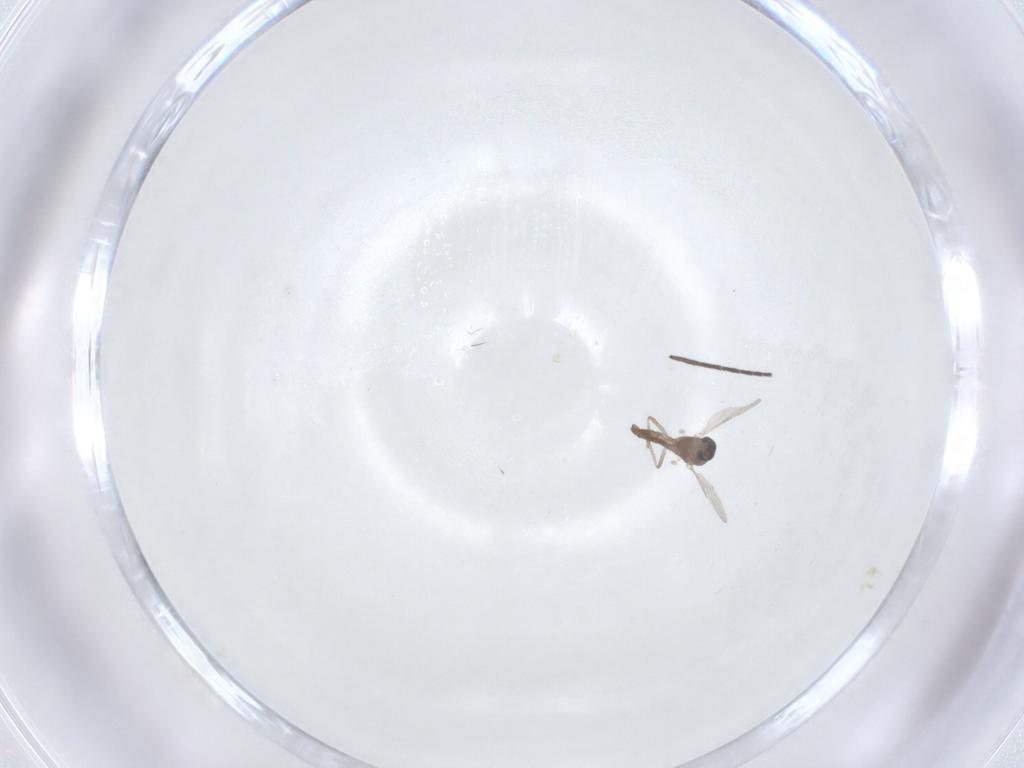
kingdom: Animalia
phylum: Arthropoda
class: Insecta
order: Diptera
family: Ceratopogonidae
